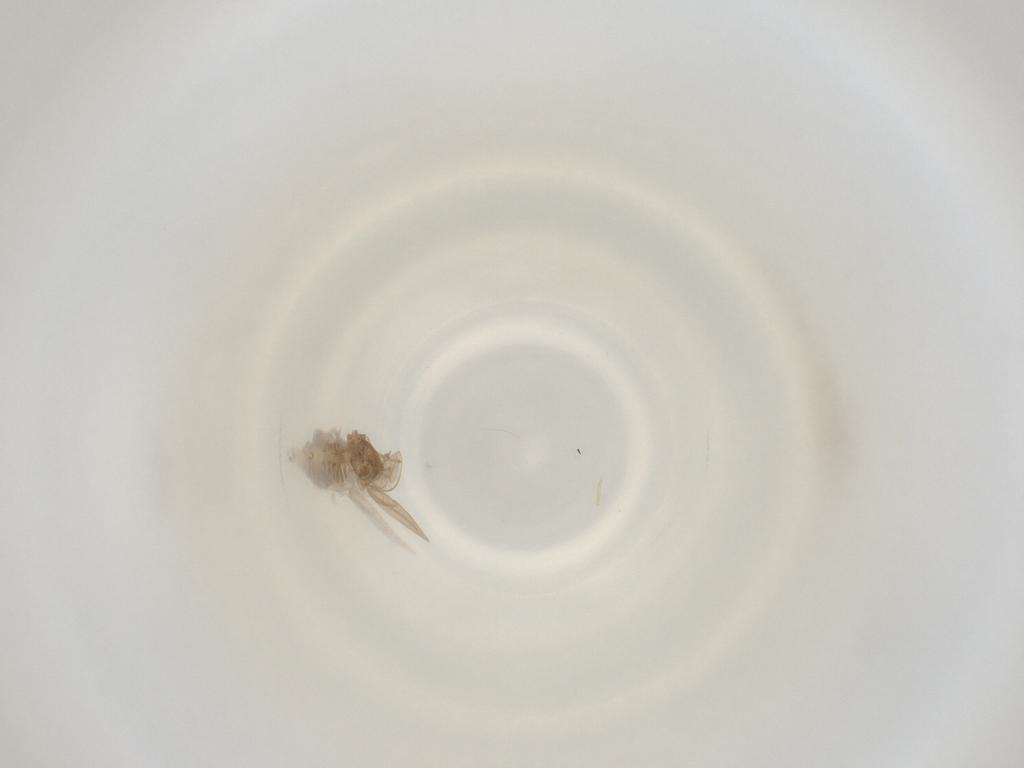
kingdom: Animalia
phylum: Arthropoda
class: Insecta
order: Diptera
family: Cecidomyiidae
